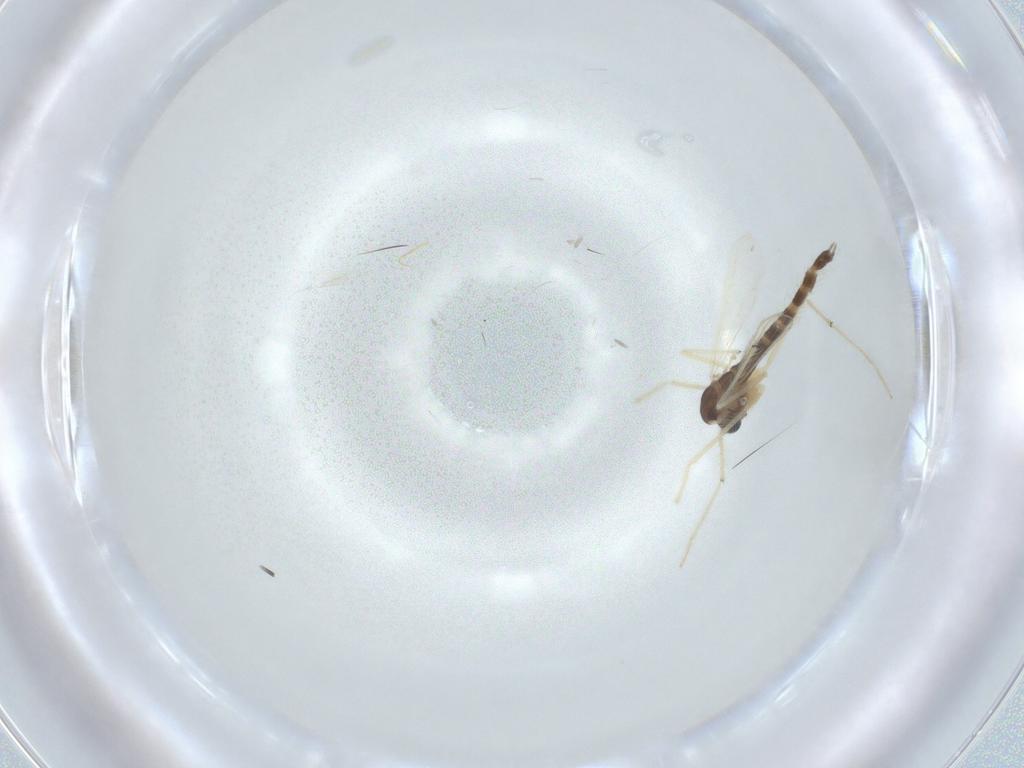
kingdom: Animalia
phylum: Arthropoda
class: Insecta
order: Diptera
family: Chironomidae
